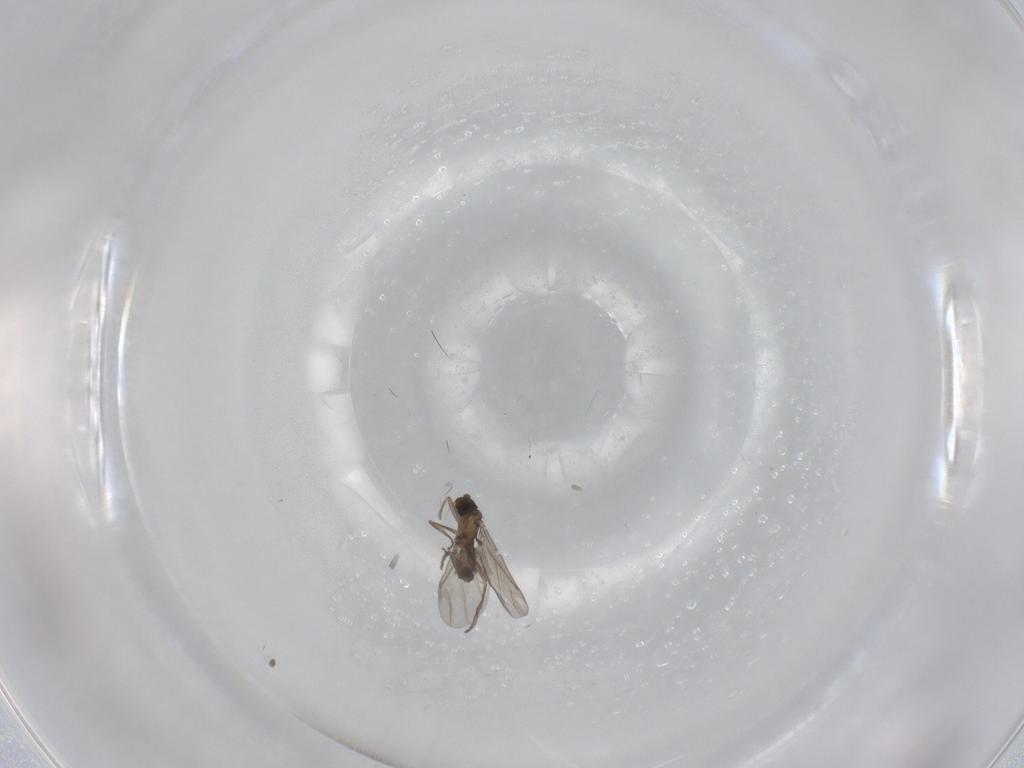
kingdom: Animalia
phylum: Arthropoda
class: Insecta
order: Diptera
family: Phoridae
